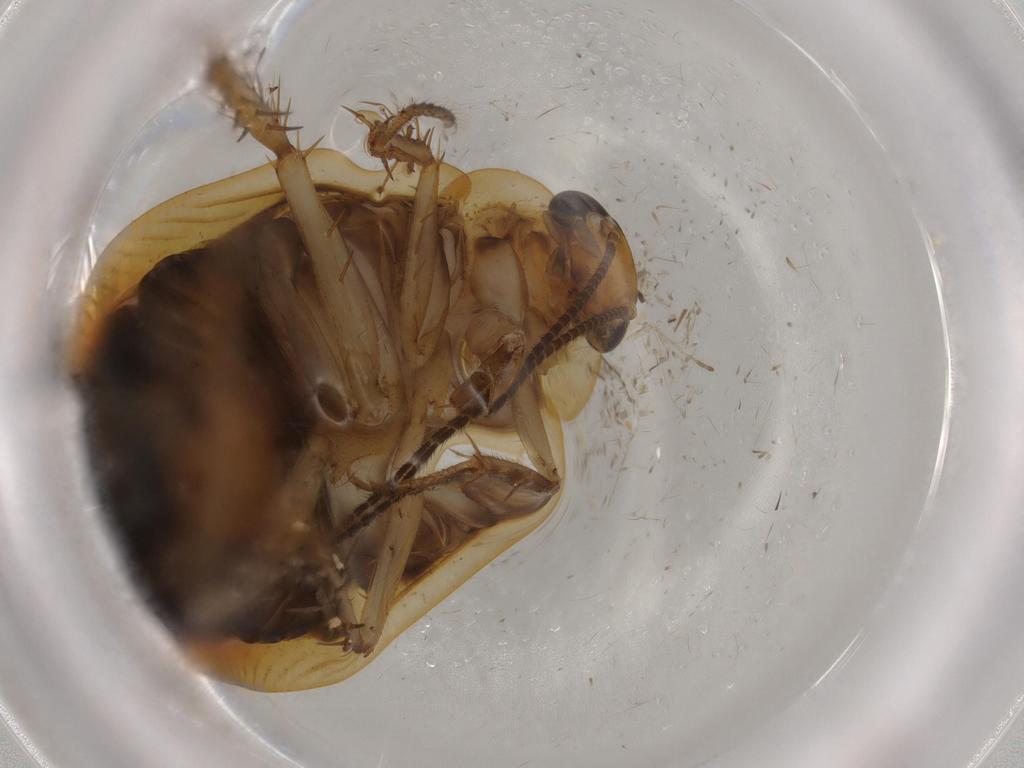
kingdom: Animalia
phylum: Arthropoda
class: Insecta
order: Blattodea
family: Ectobiidae
